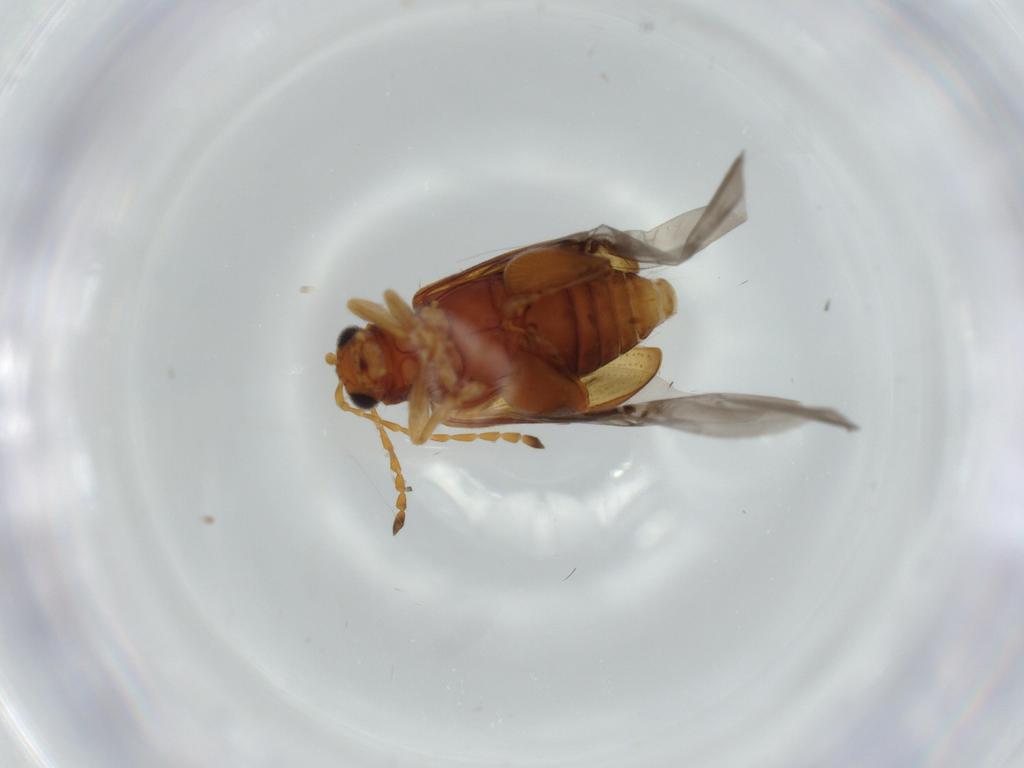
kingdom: Animalia
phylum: Arthropoda
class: Insecta
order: Coleoptera
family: Chrysomelidae
